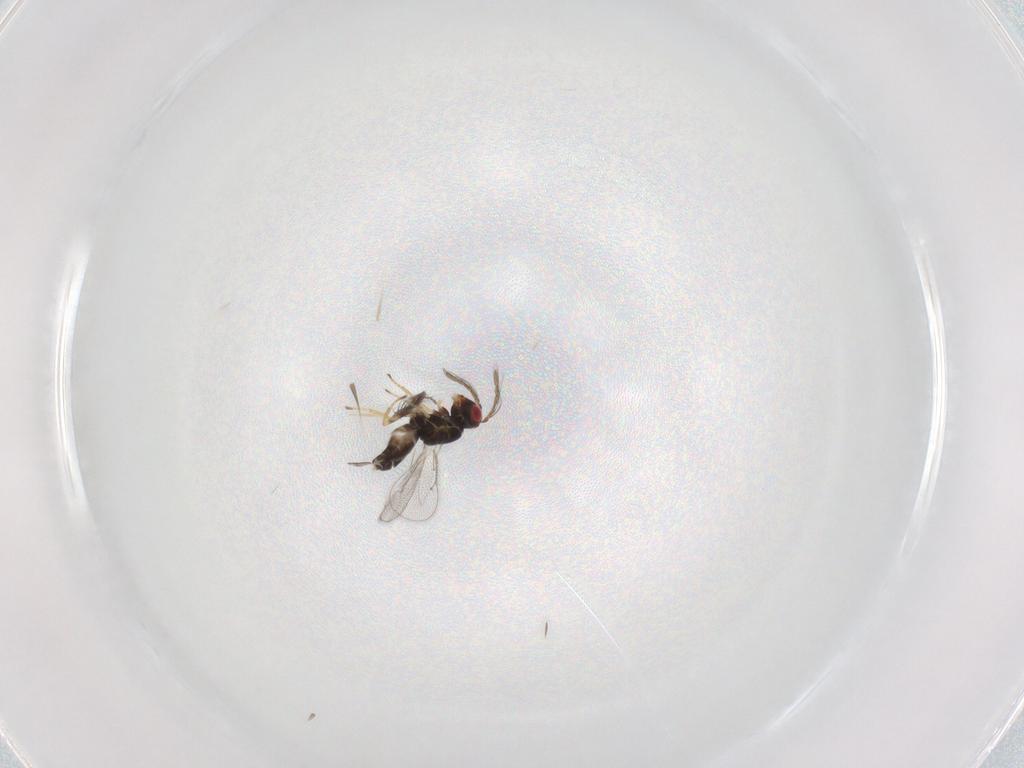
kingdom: Animalia
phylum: Arthropoda
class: Insecta
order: Hymenoptera
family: Eulophidae
